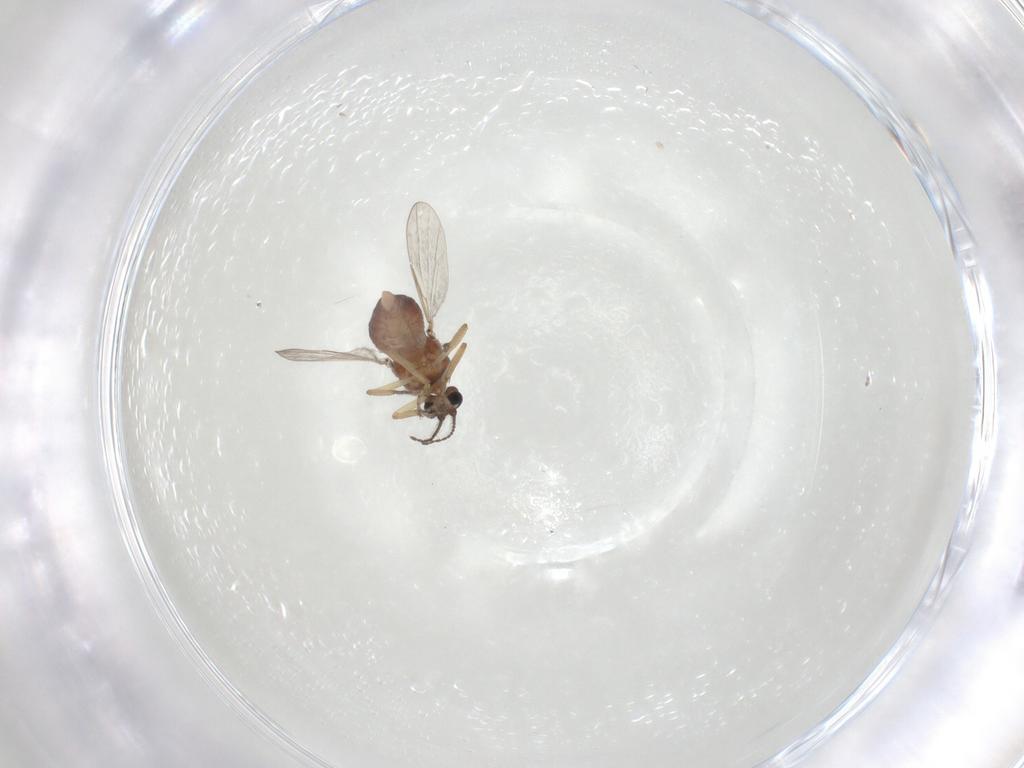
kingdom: Animalia
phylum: Arthropoda
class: Insecta
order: Diptera
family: Ceratopogonidae
